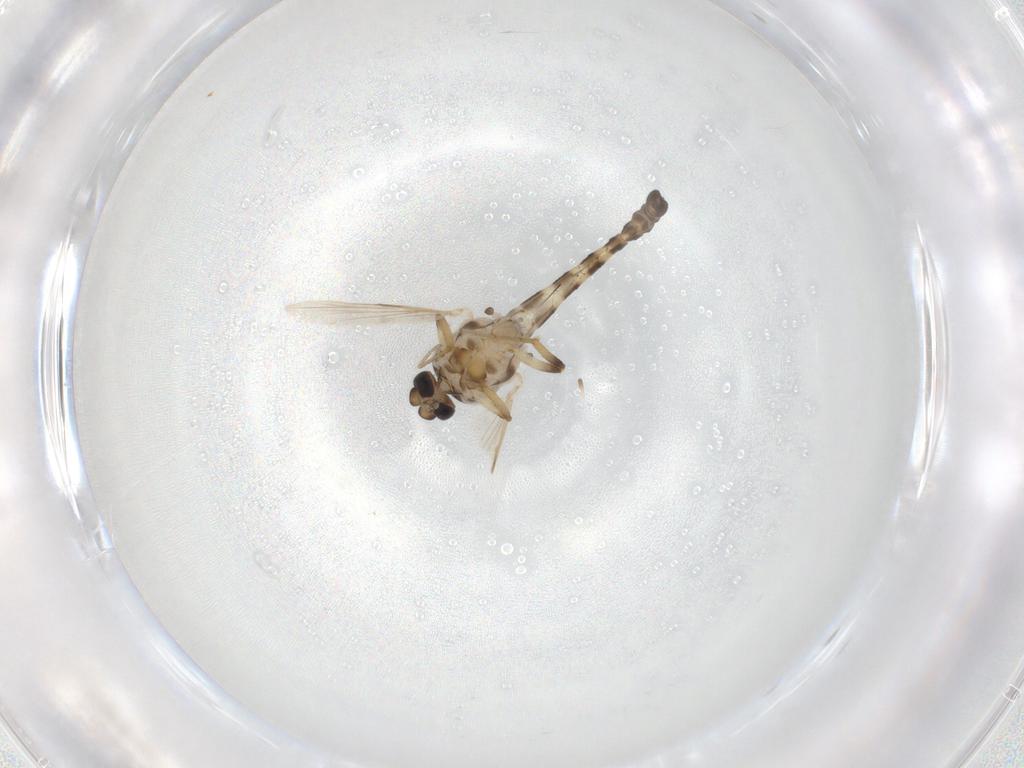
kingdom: Animalia
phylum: Arthropoda
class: Insecta
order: Diptera
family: Ceratopogonidae
